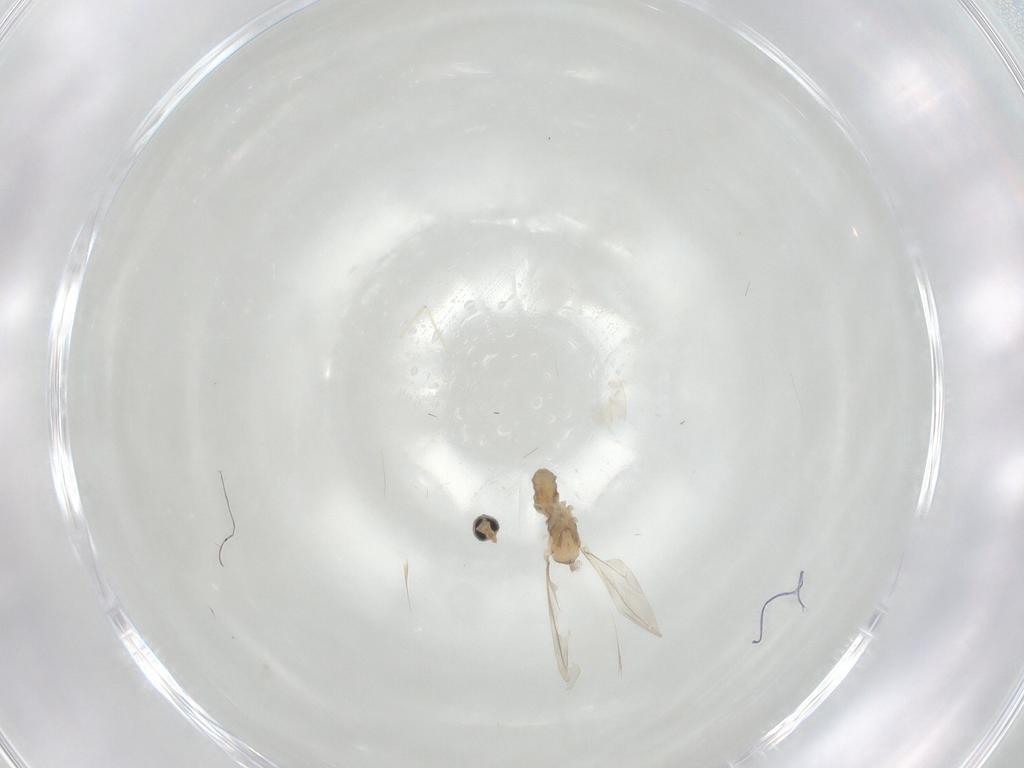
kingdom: Animalia
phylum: Arthropoda
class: Insecta
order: Diptera
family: Cecidomyiidae
